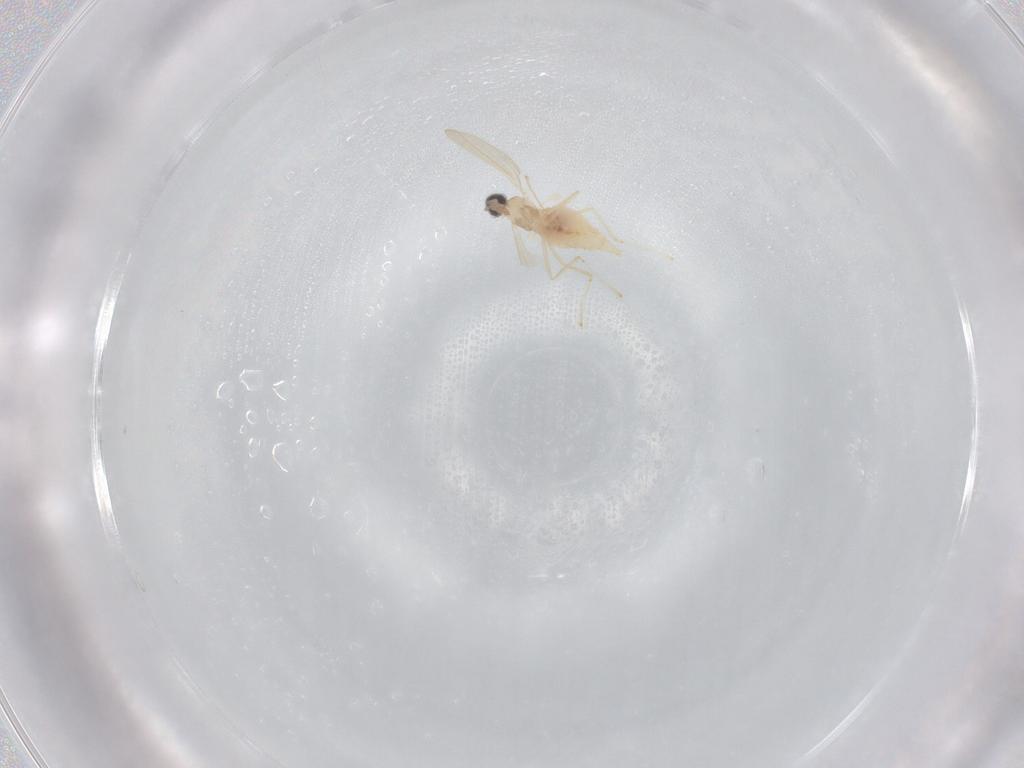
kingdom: Animalia
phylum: Arthropoda
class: Insecta
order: Diptera
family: Cecidomyiidae
